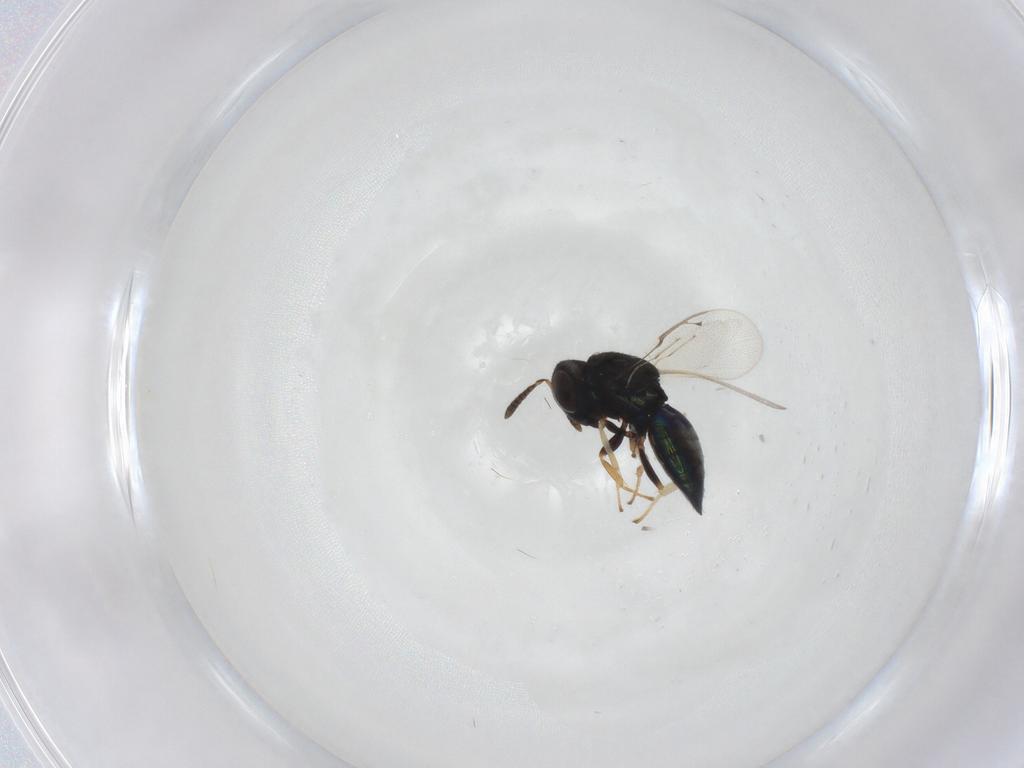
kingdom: Animalia
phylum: Arthropoda
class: Insecta
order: Hymenoptera
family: Pteromalidae
